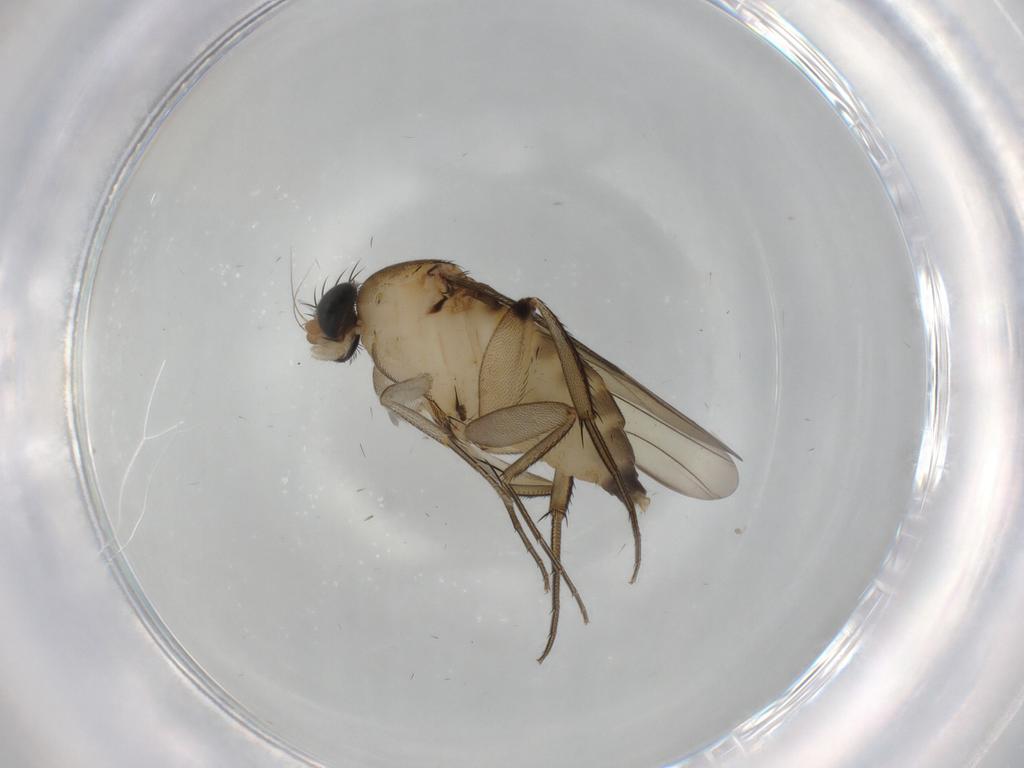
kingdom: Animalia
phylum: Arthropoda
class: Insecta
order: Diptera
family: Phoridae
